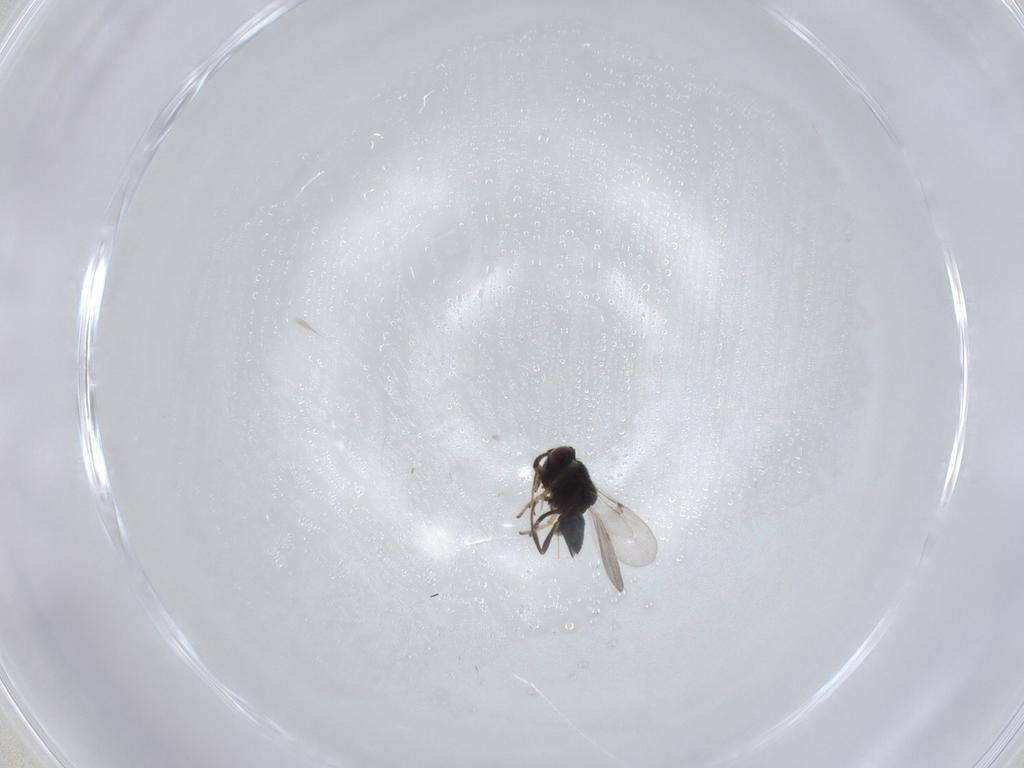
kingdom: Animalia
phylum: Arthropoda
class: Insecta
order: Hymenoptera
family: Encyrtidae
